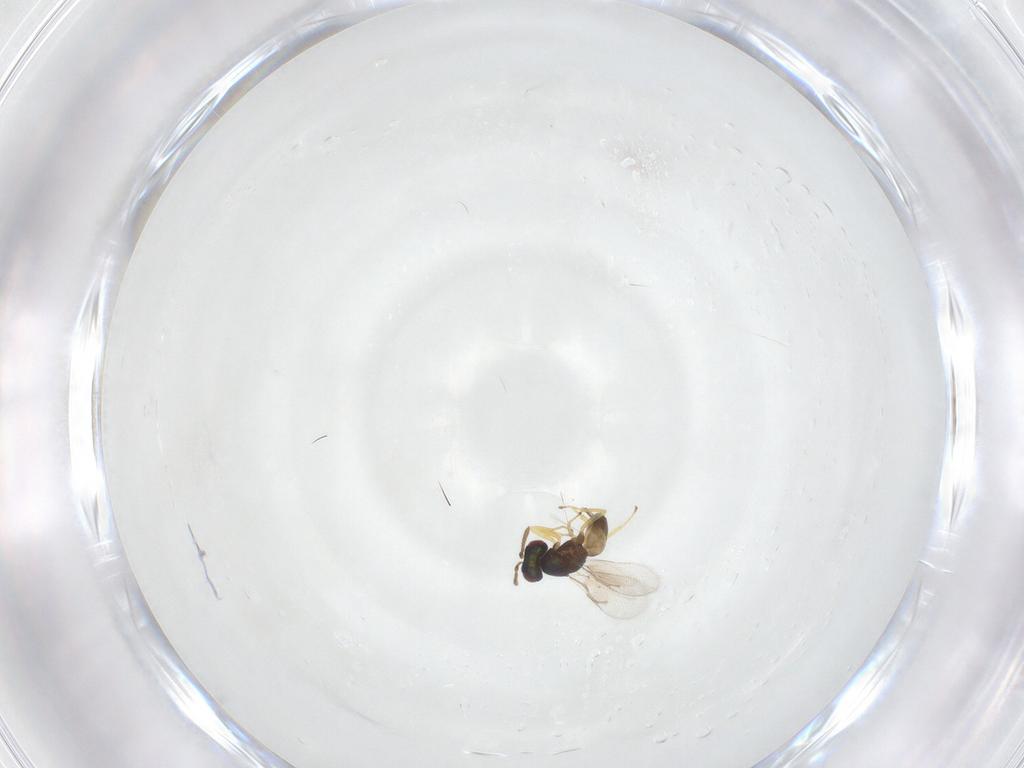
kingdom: Animalia
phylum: Arthropoda
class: Insecta
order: Hymenoptera
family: Pteromalidae
